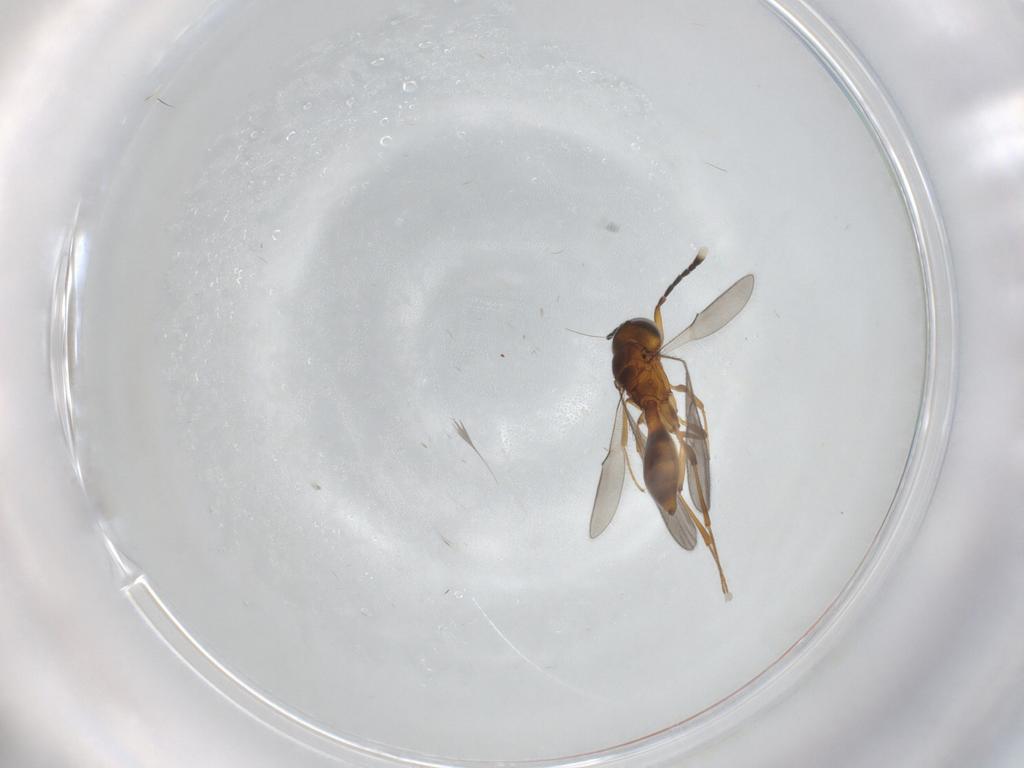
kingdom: Animalia
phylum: Arthropoda
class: Insecta
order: Hymenoptera
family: Scelionidae
